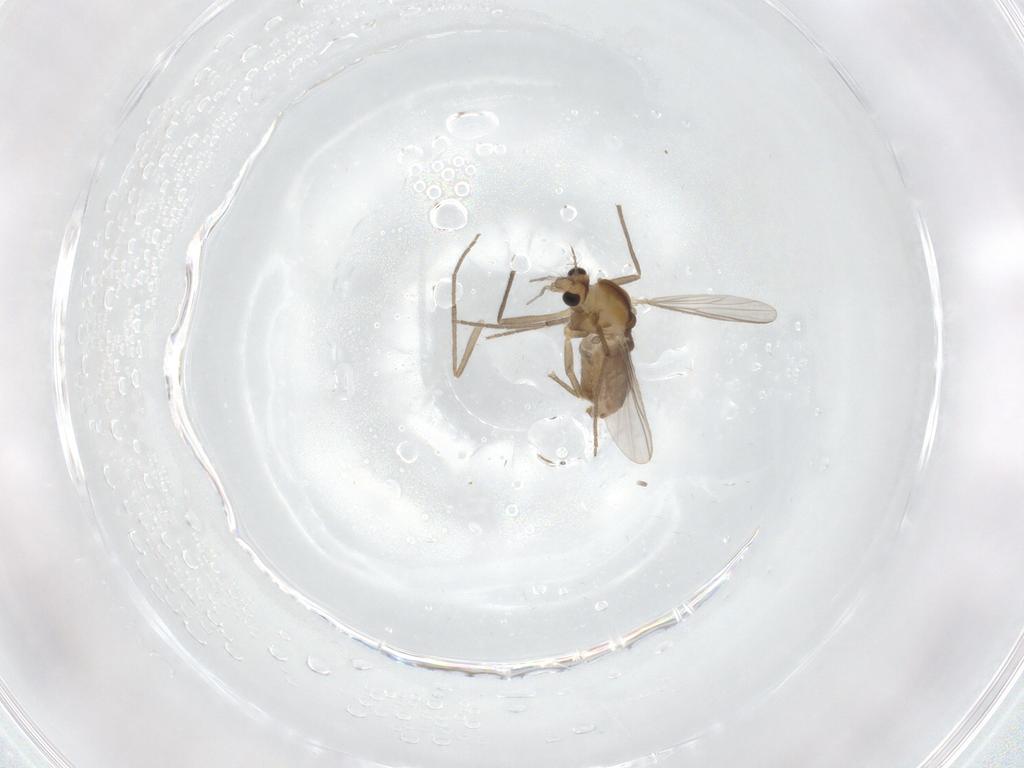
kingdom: Animalia
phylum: Arthropoda
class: Insecta
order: Diptera
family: Chironomidae
